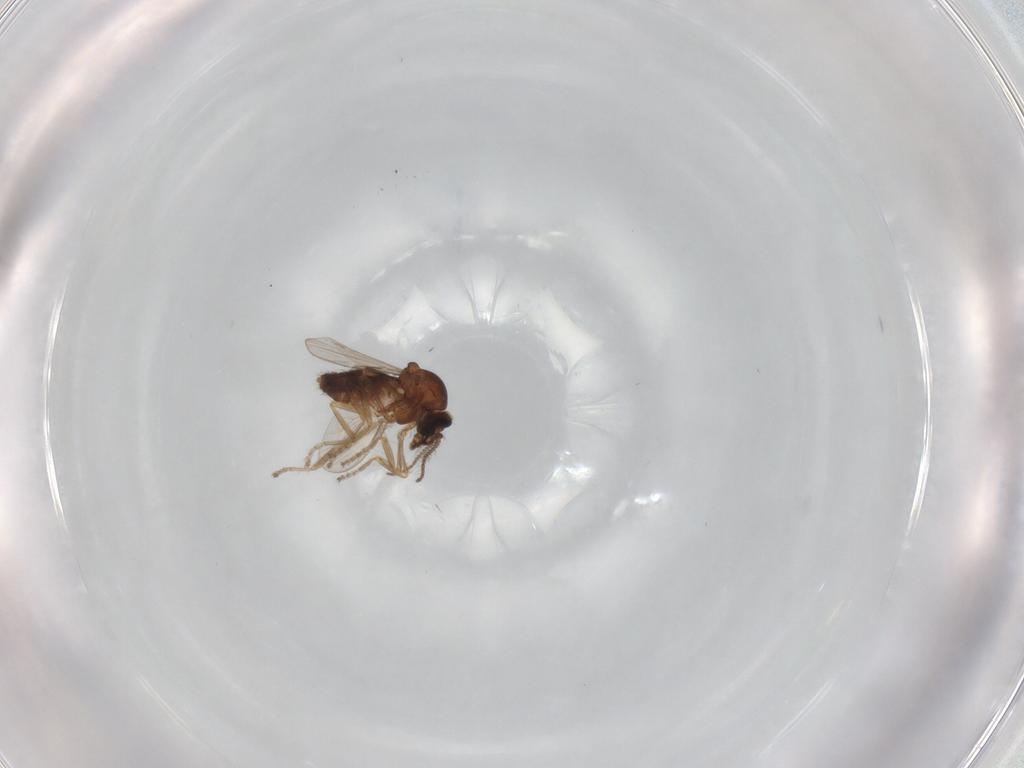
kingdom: Animalia
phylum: Arthropoda
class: Insecta
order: Diptera
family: Ceratopogonidae
